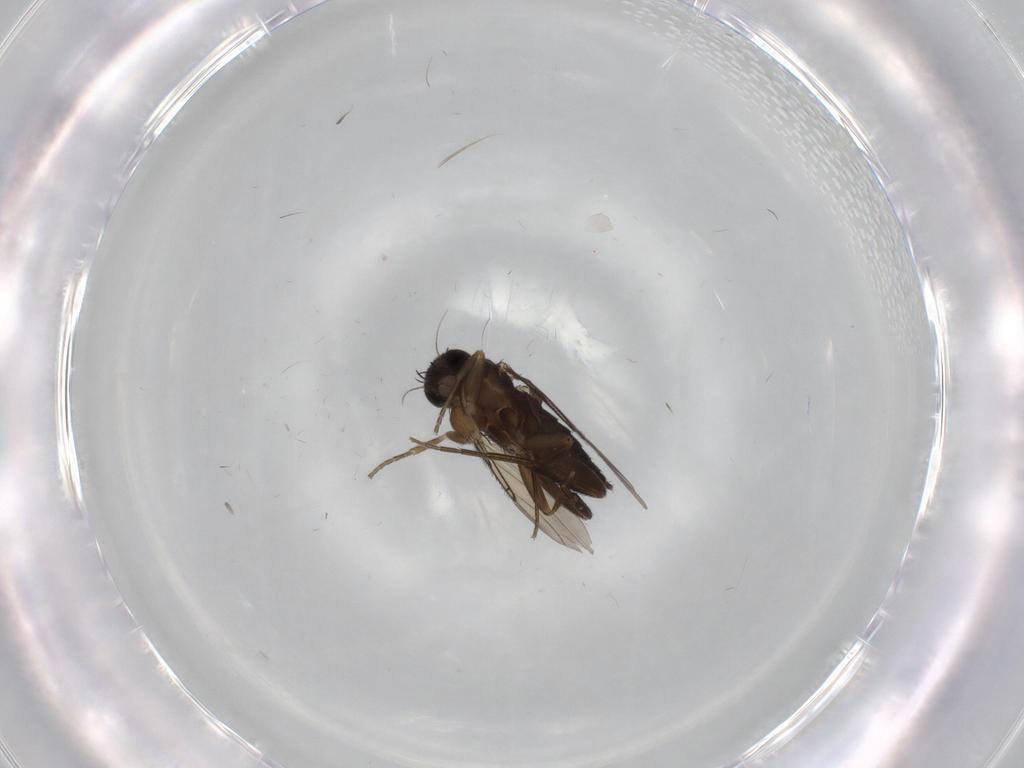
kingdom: Animalia
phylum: Arthropoda
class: Insecta
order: Diptera
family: Phoridae
